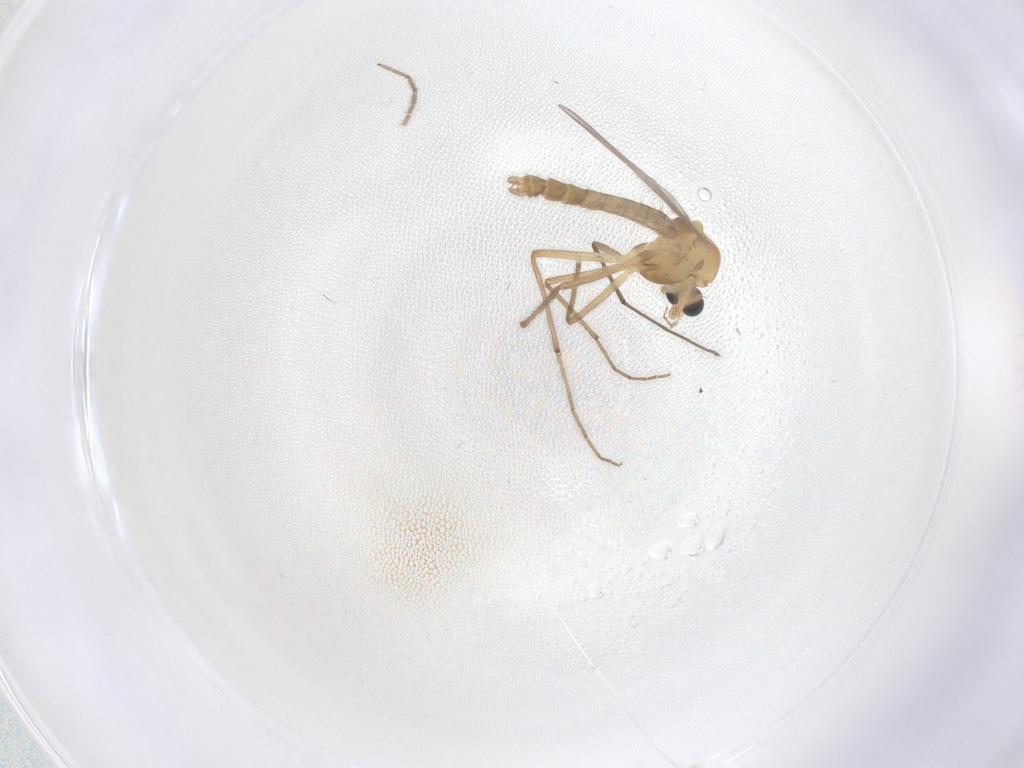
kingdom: Animalia
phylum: Arthropoda
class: Insecta
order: Diptera
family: Chironomidae
